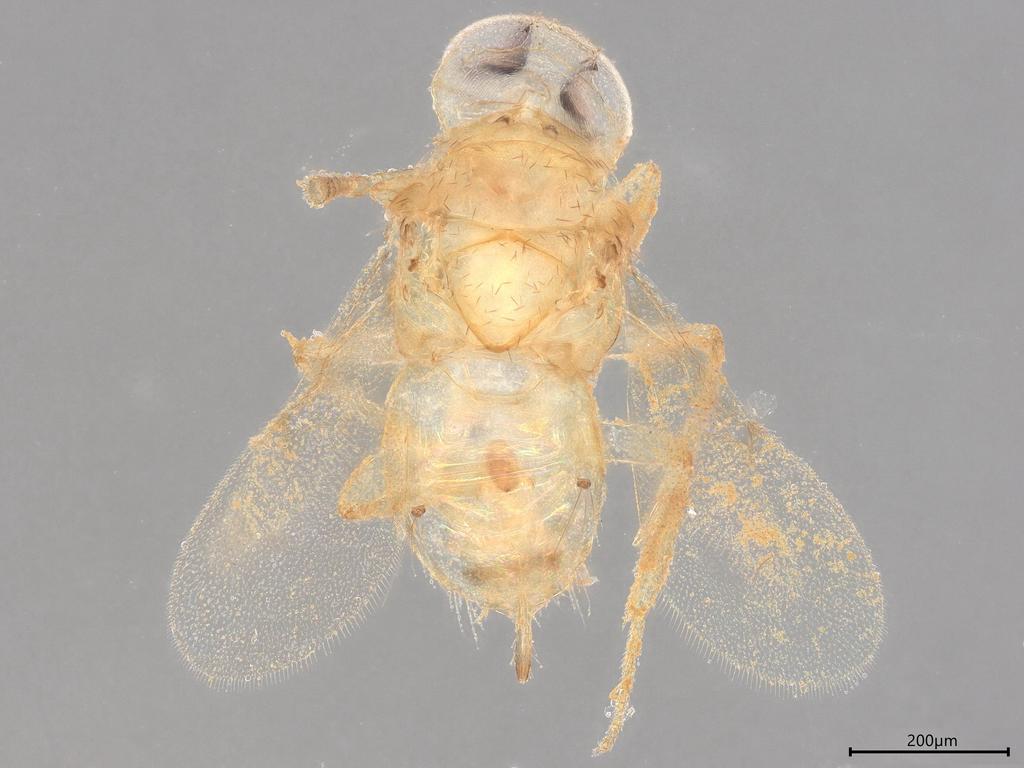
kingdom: Animalia
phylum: Arthropoda
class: Insecta
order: Hymenoptera
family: Encyrtidae
